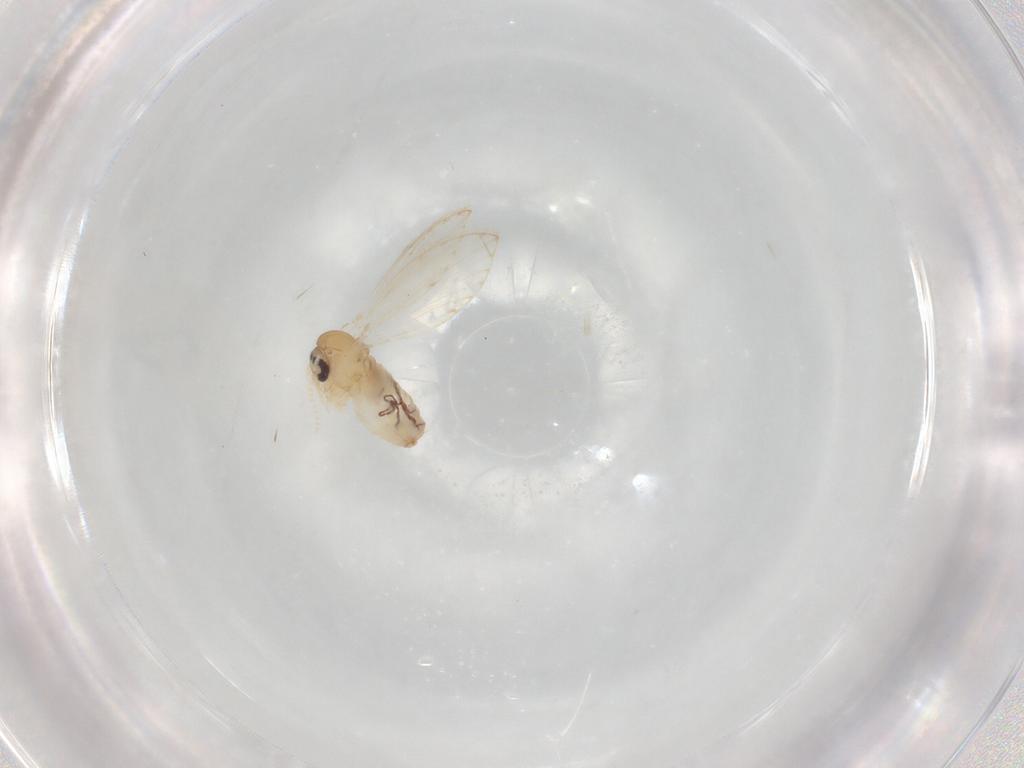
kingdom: Animalia
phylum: Arthropoda
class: Insecta
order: Diptera
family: Psychodidae
